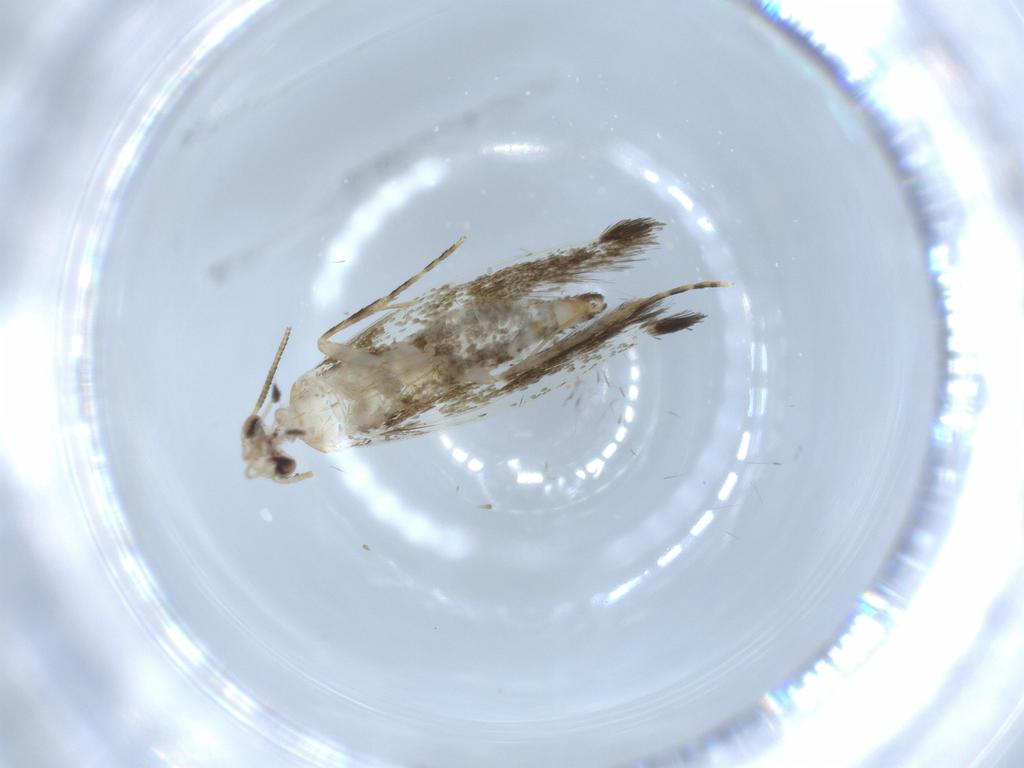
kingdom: Animalia
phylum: Arthropoda
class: Insecta
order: Lepidoptera
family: Tineidae
